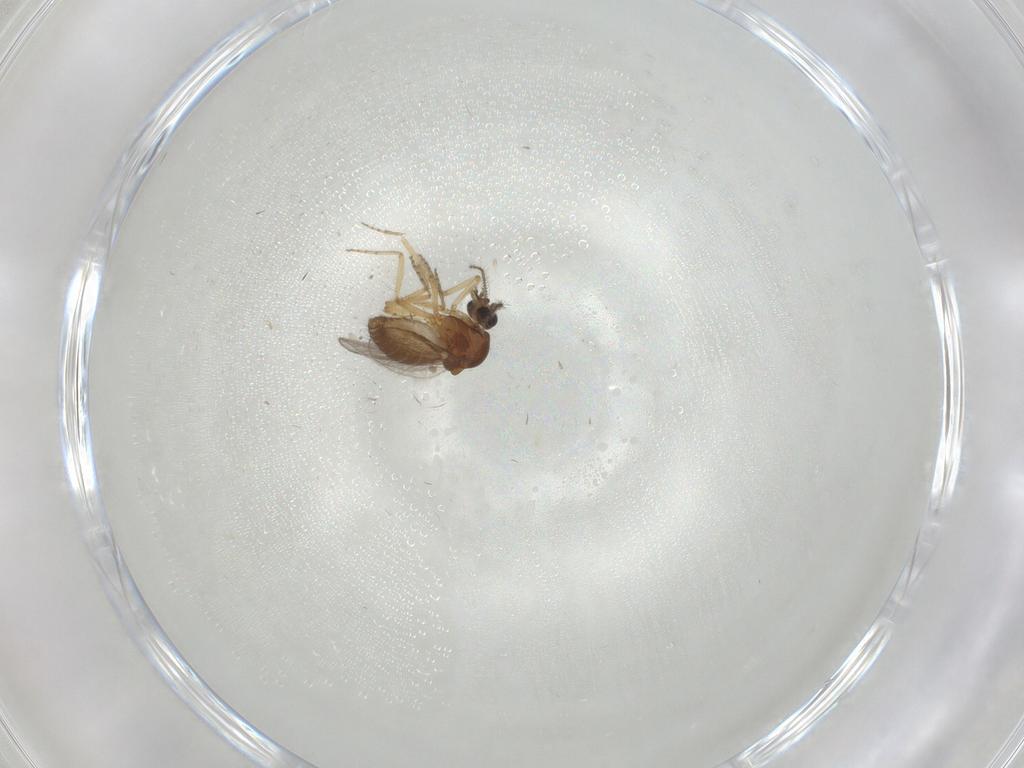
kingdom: Animalia
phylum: Arthropoda
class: Insecta
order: Diptera
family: Ceratopogonidae
